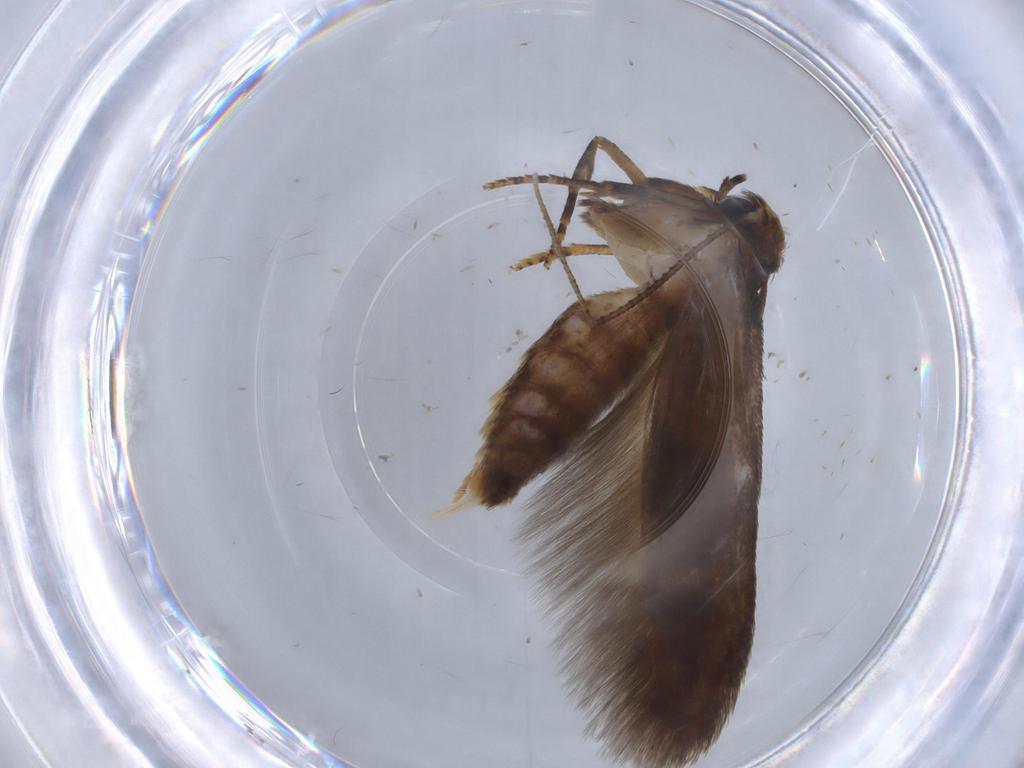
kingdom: Animalia
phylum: Arthropoda
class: Insecta
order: Lepidoptera
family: Blastobasidae
